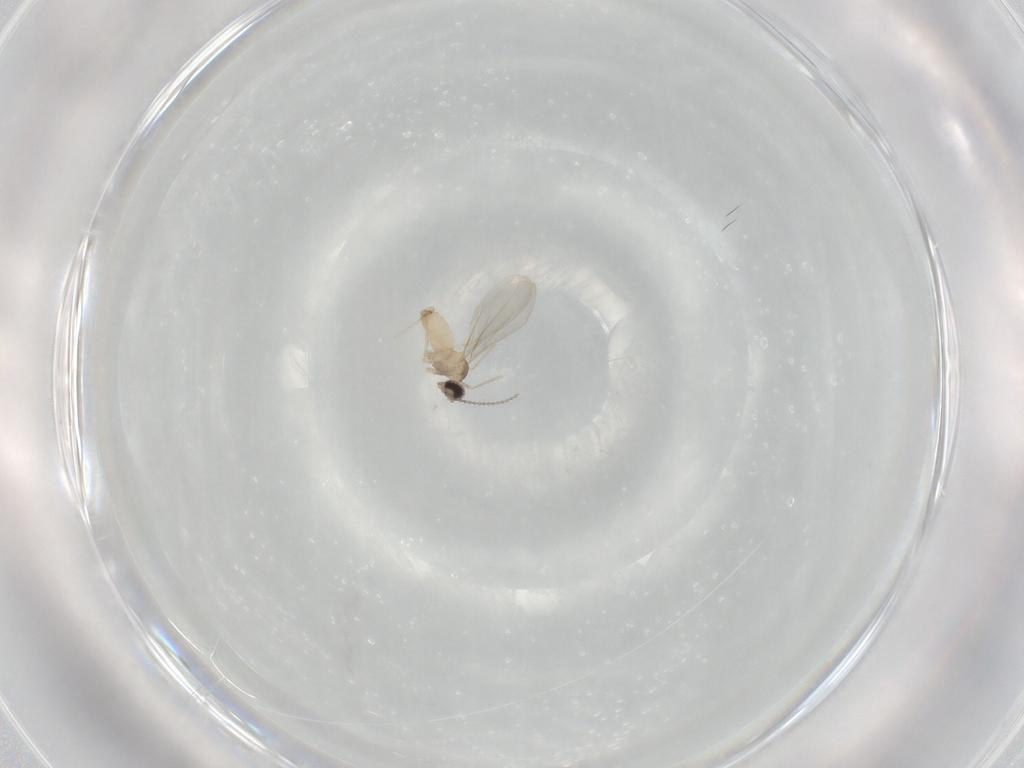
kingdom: Animalia
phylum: Arthropoda
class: Insecta
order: Diptera
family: Cecidomyiidae
